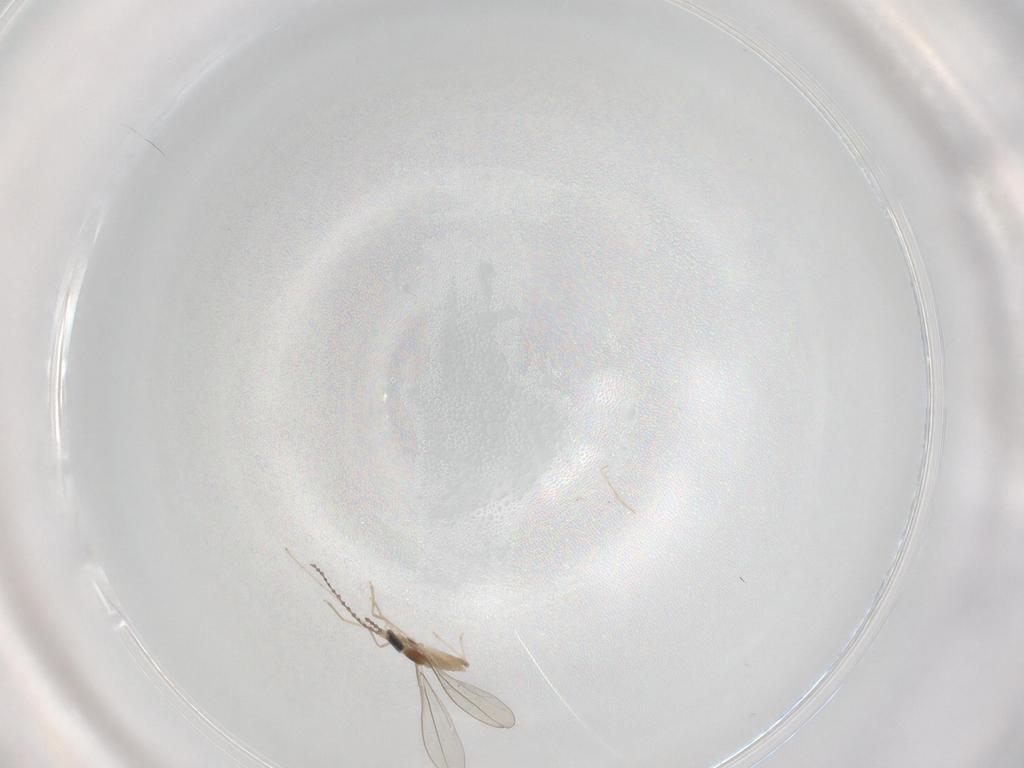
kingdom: Animalia
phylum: Arthropoda
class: Insecta
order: Diptera
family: Cecidomyiidae
